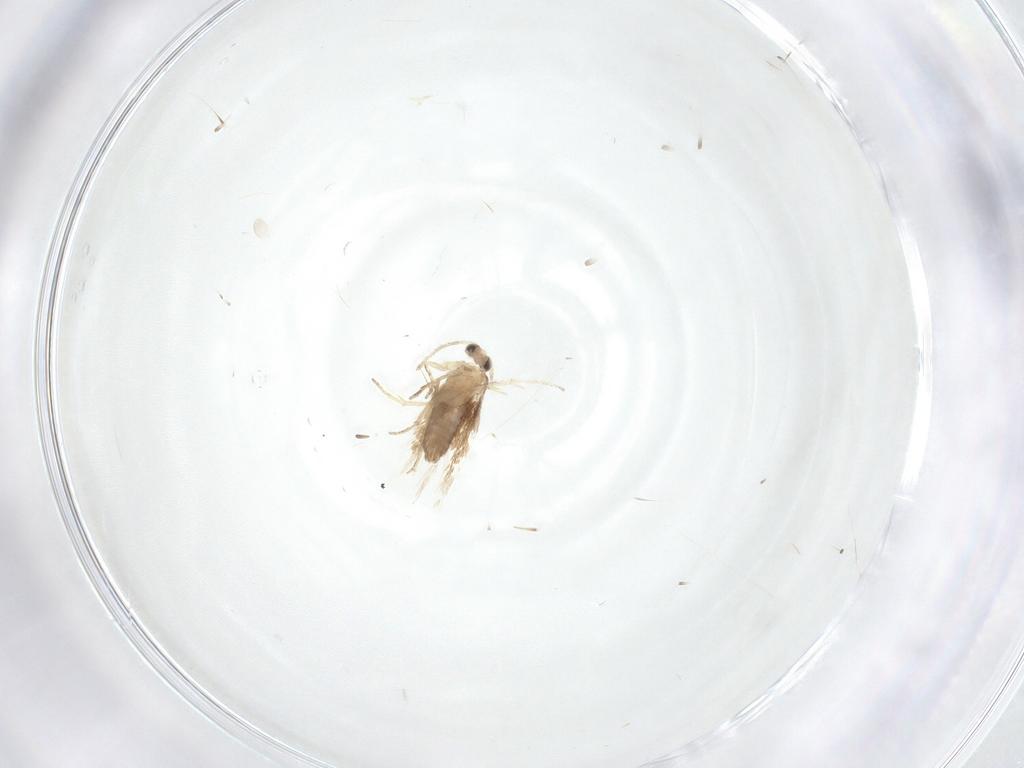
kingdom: Animalia
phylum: Arthropoda
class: Insecta
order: Lepidoptera
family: Nepticulidae
